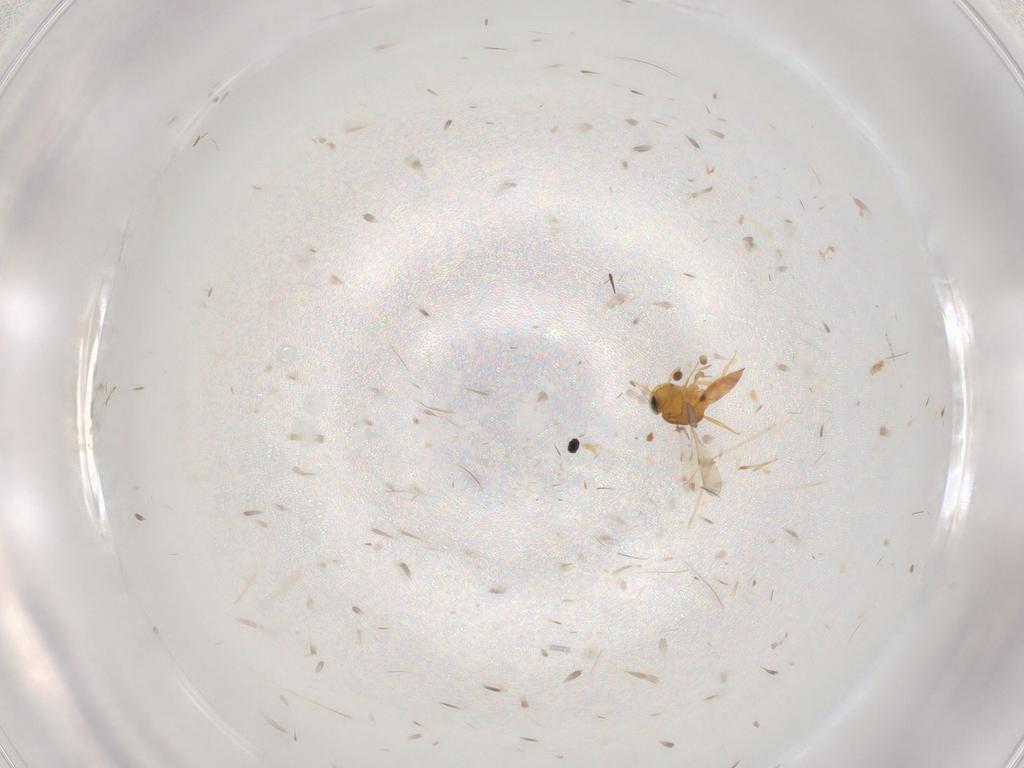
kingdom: Animalia
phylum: Arthropoda
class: Insecta
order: Hymenoptera
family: Scelionidae
